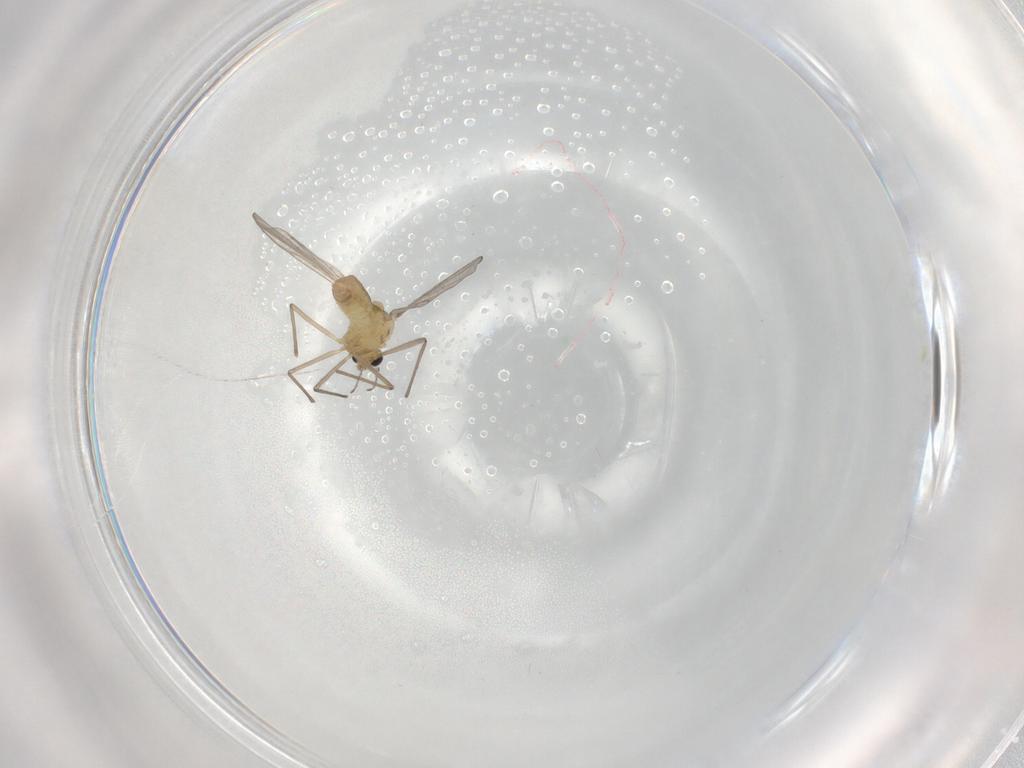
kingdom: Animalia
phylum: Arthropoda
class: Insecta
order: Diptera
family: Chironomidae
